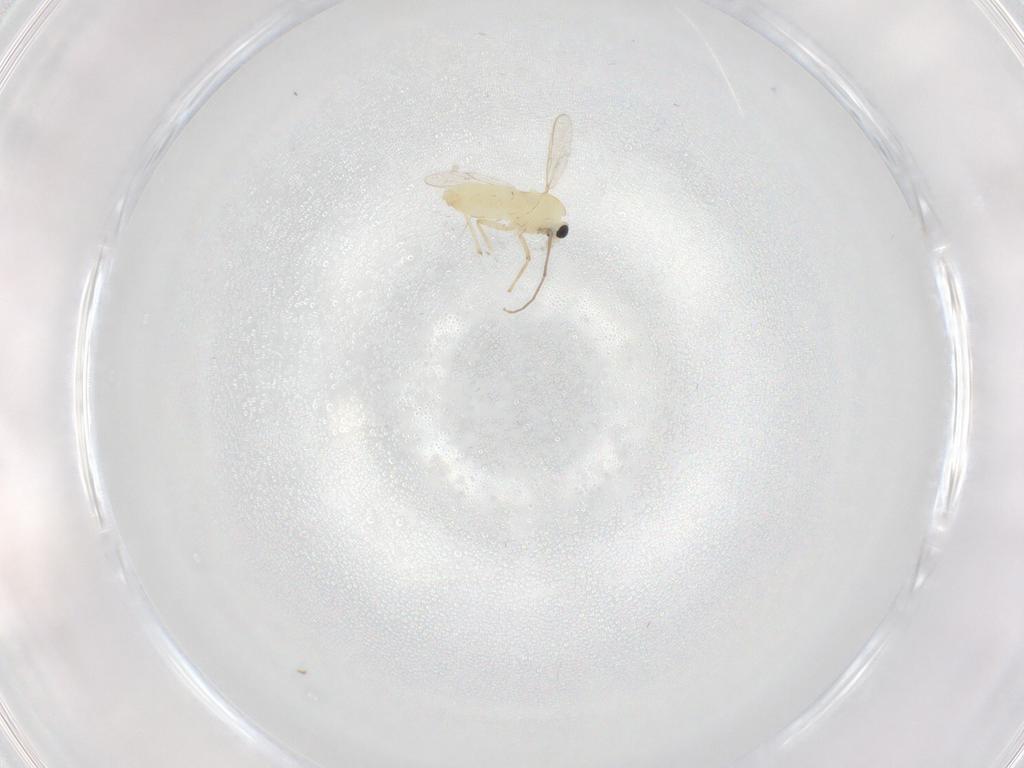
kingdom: Animalia
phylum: Arthropoda
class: Insecta
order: Diptera
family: Chironomidae
